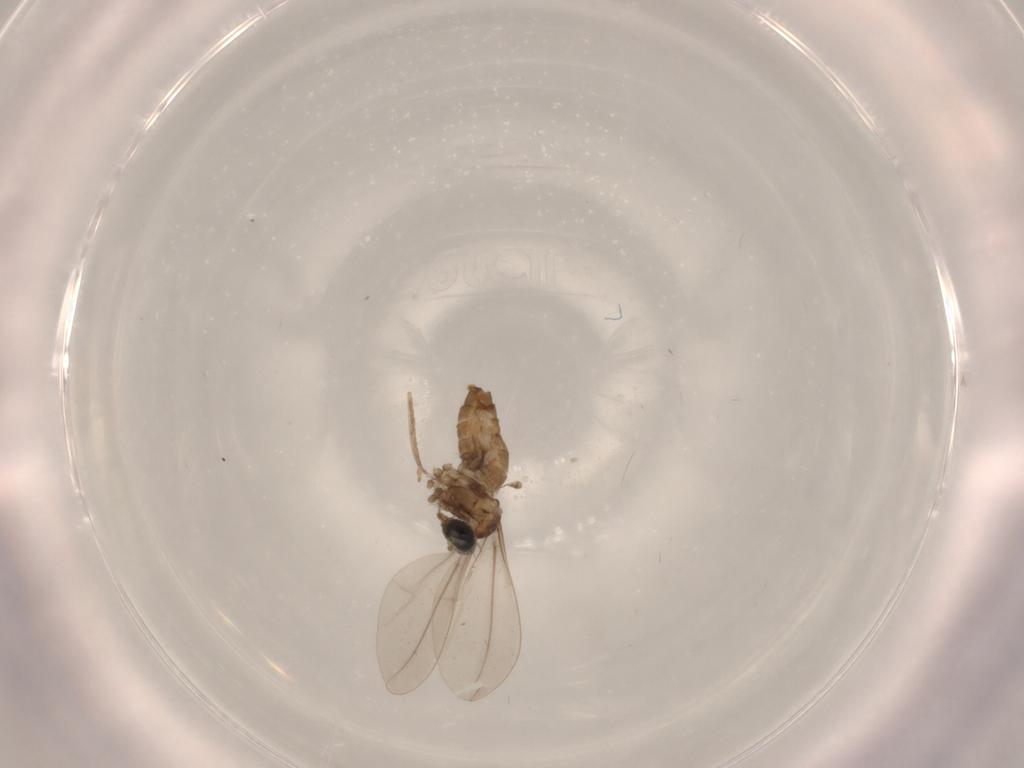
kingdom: Animalia
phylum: Arthropoda
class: Insecta
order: Diptera
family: Cecidomyiidae
